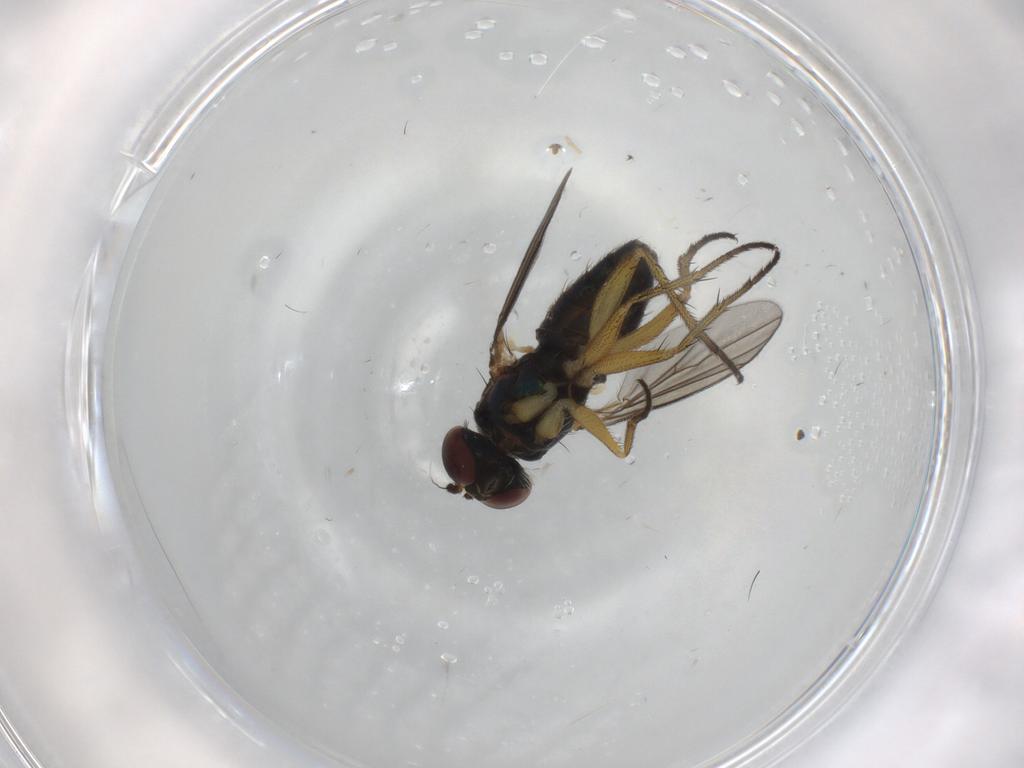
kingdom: Animalia
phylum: Arthropoda
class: Insecta
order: Diptera
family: Dolichopodidae
